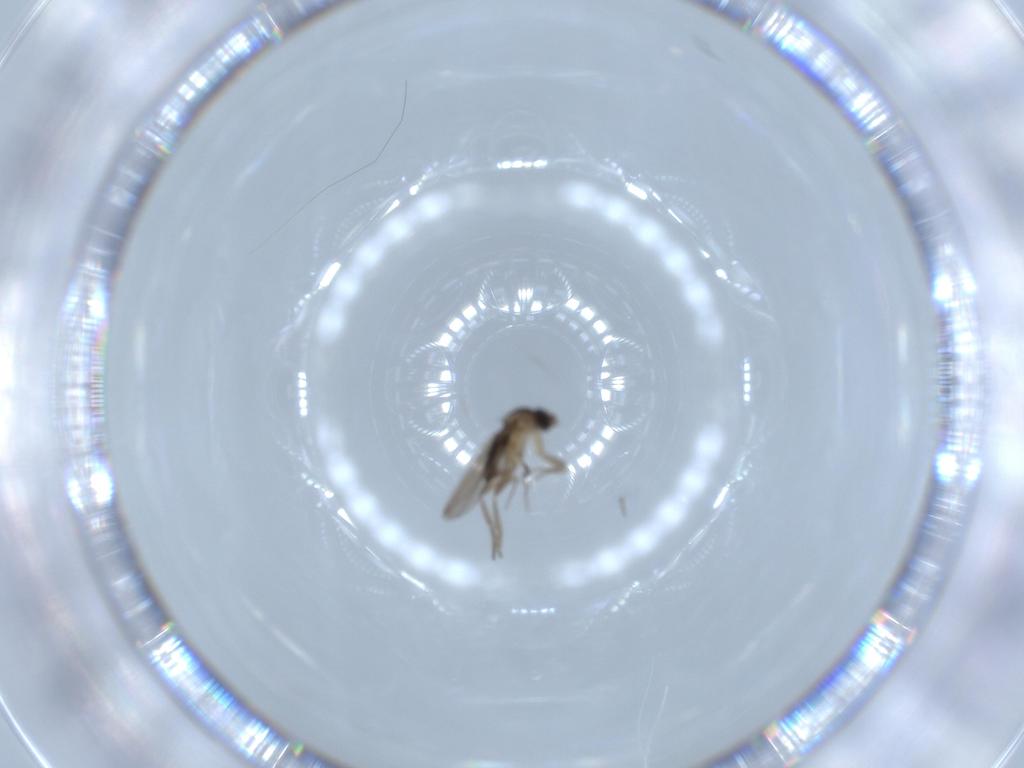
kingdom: Animalia
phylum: Arthropoda
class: Insecta
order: Diptera
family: Phoridae
